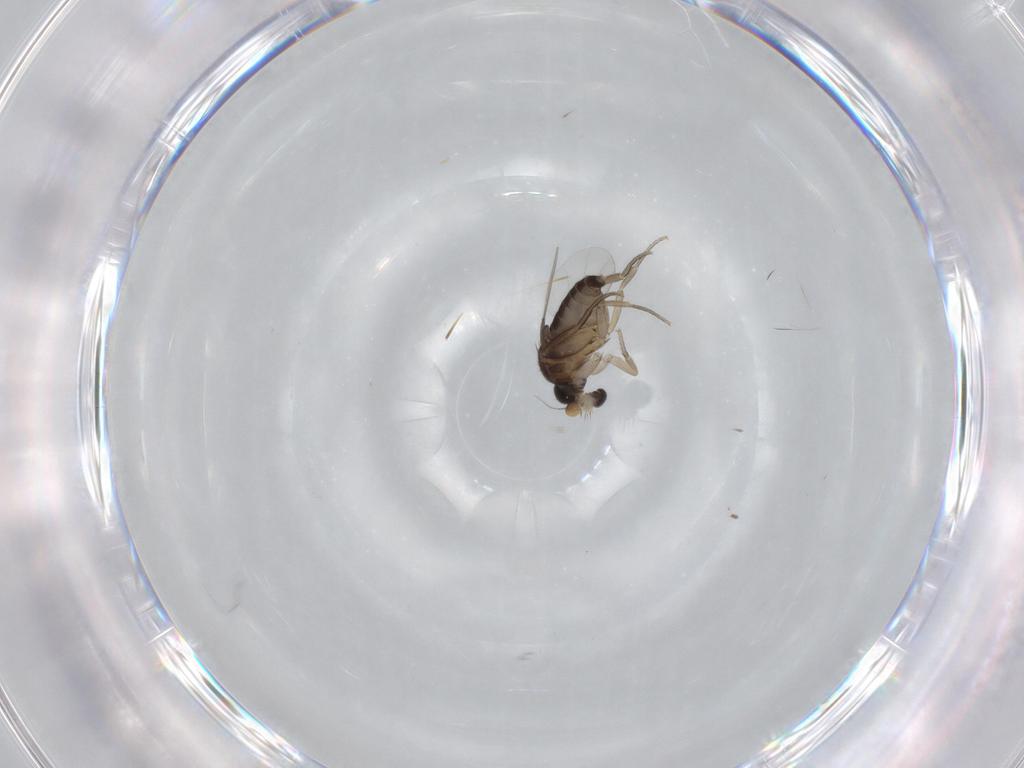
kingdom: Animalia
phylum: Arthropoda
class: Insecta
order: Diptera
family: Phoridae
